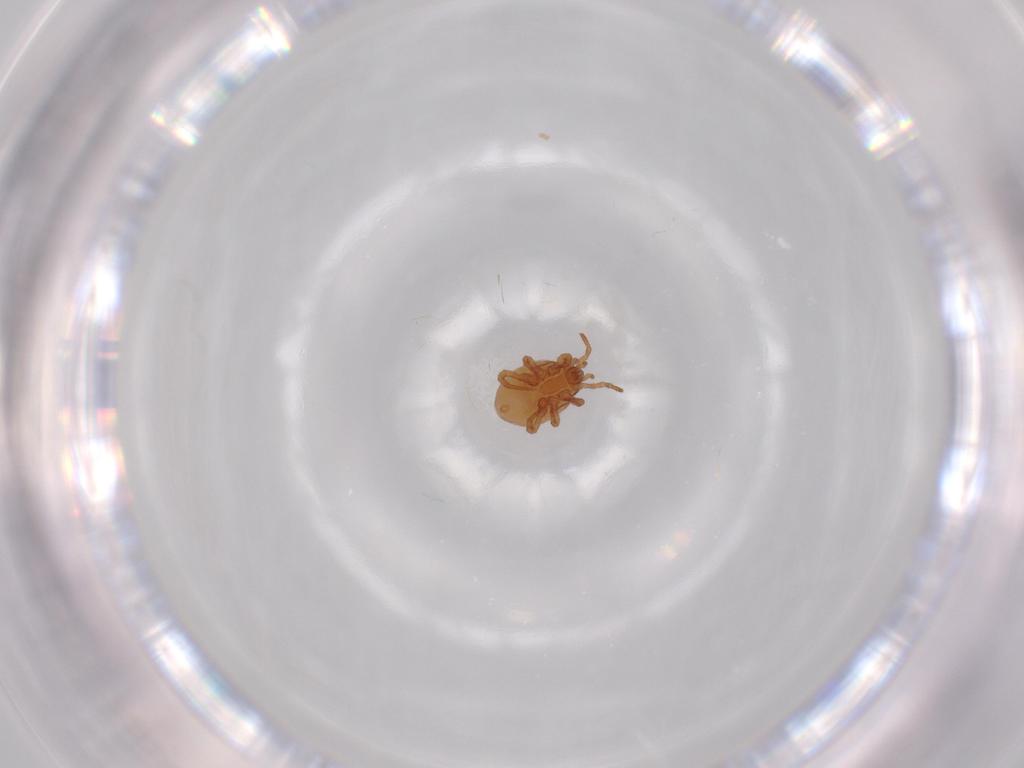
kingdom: Animalia
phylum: Arthropoda
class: Arachnida
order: Mesostigmata
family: Parasitidae
